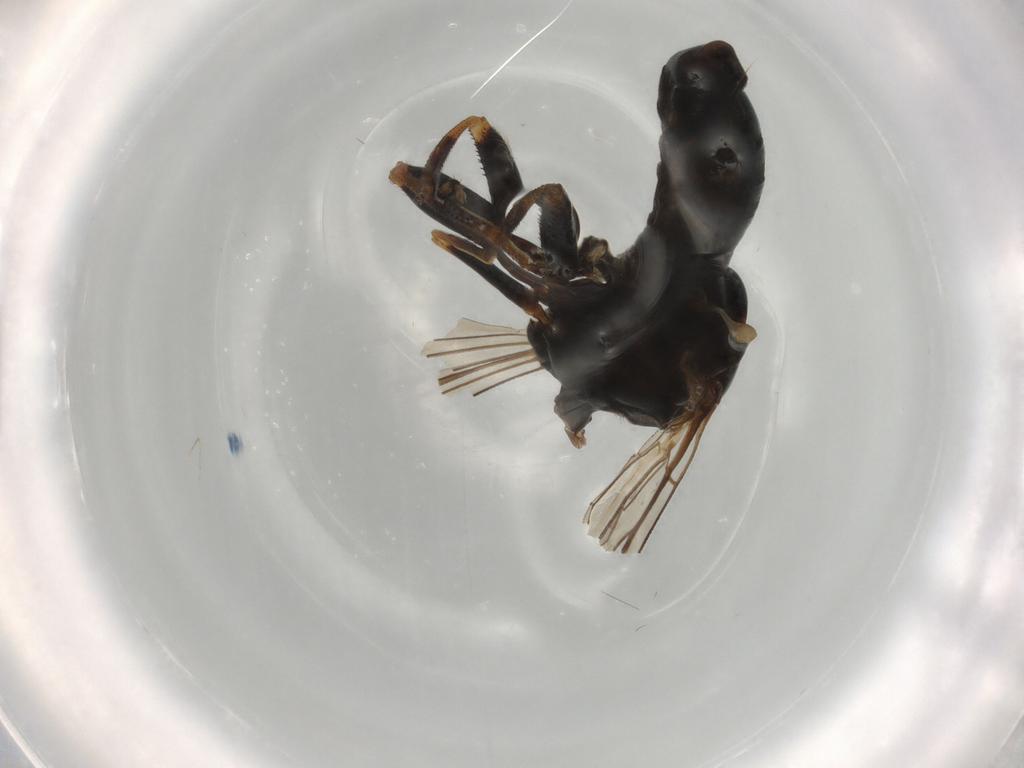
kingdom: Animalia
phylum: Arthropoda
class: Insecta
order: Diptera
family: Pipunculidae
